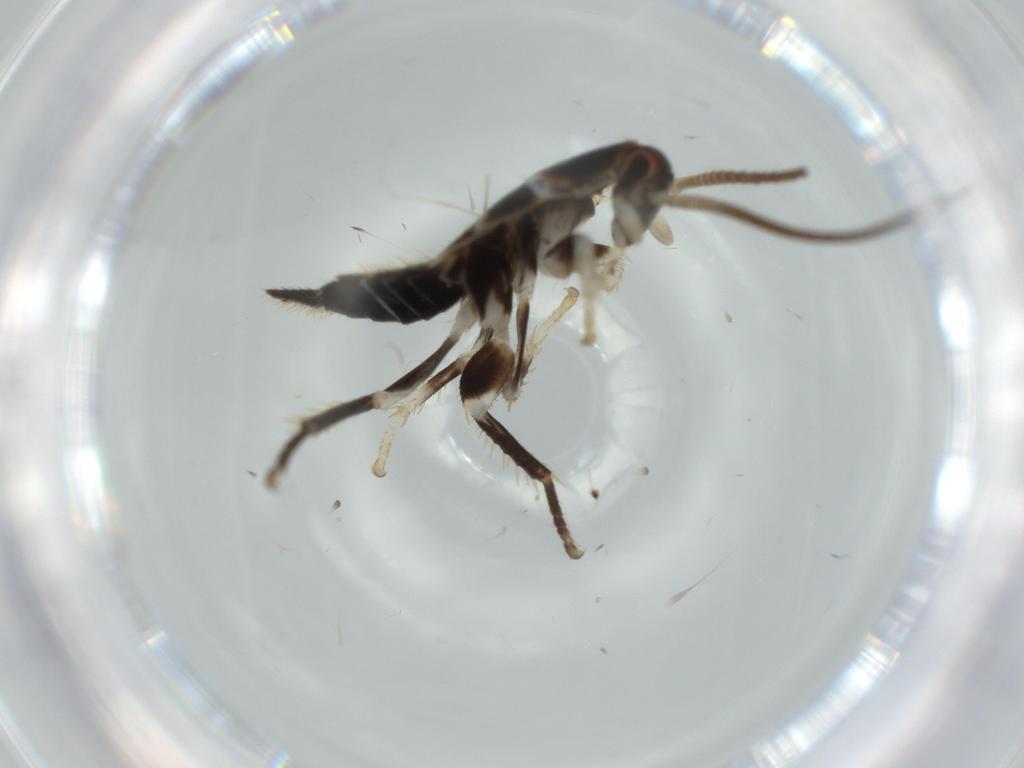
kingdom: Animalia
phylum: Arthropoda
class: Insecta
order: Blattodea
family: Ectobiidae
